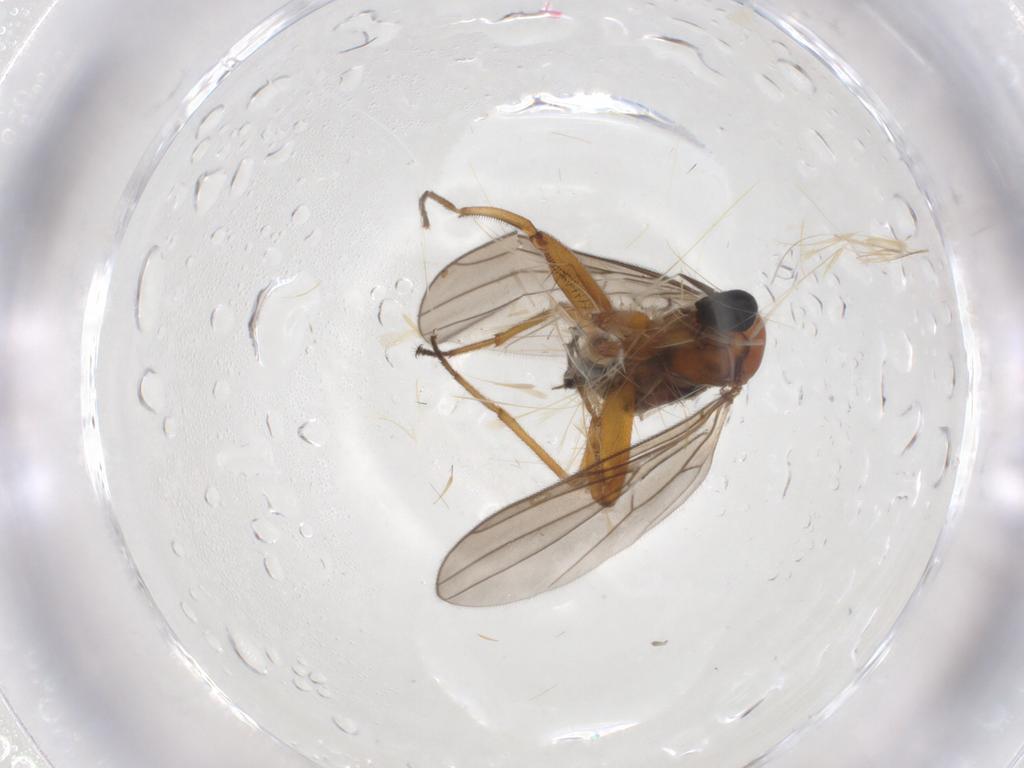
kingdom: Animalia
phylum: Arthropoda
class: Insecta
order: Diptera
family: Hybotidae
